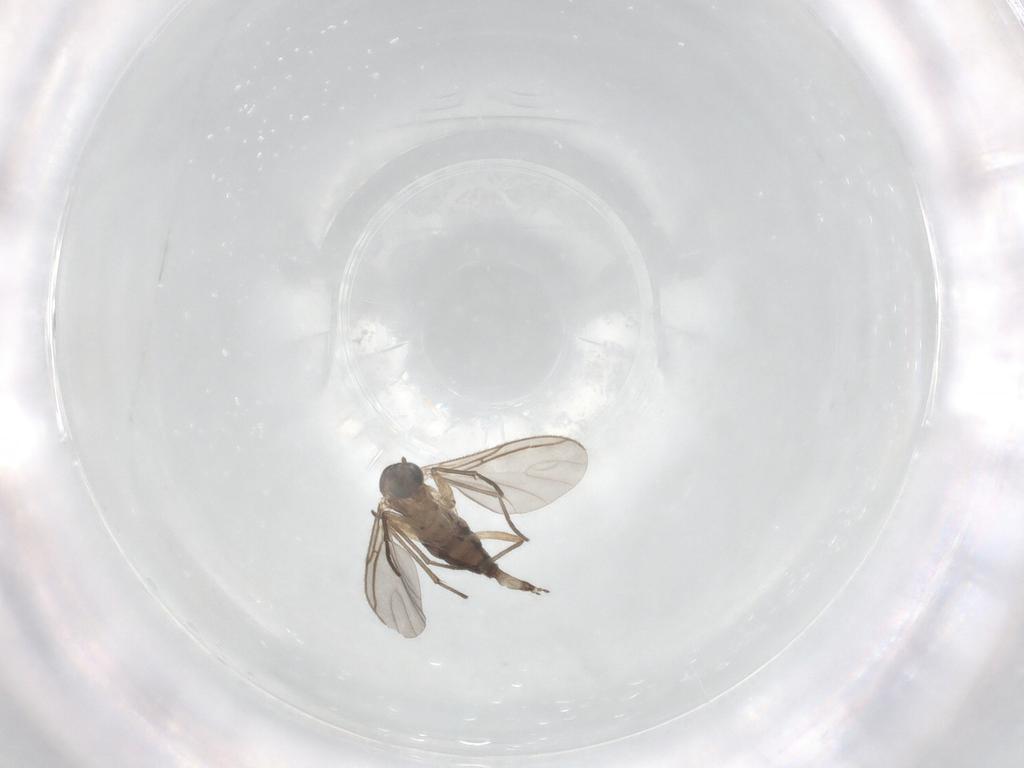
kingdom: Animalia
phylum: Arthropoda
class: Insecta
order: Diptera
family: Sciaridae
